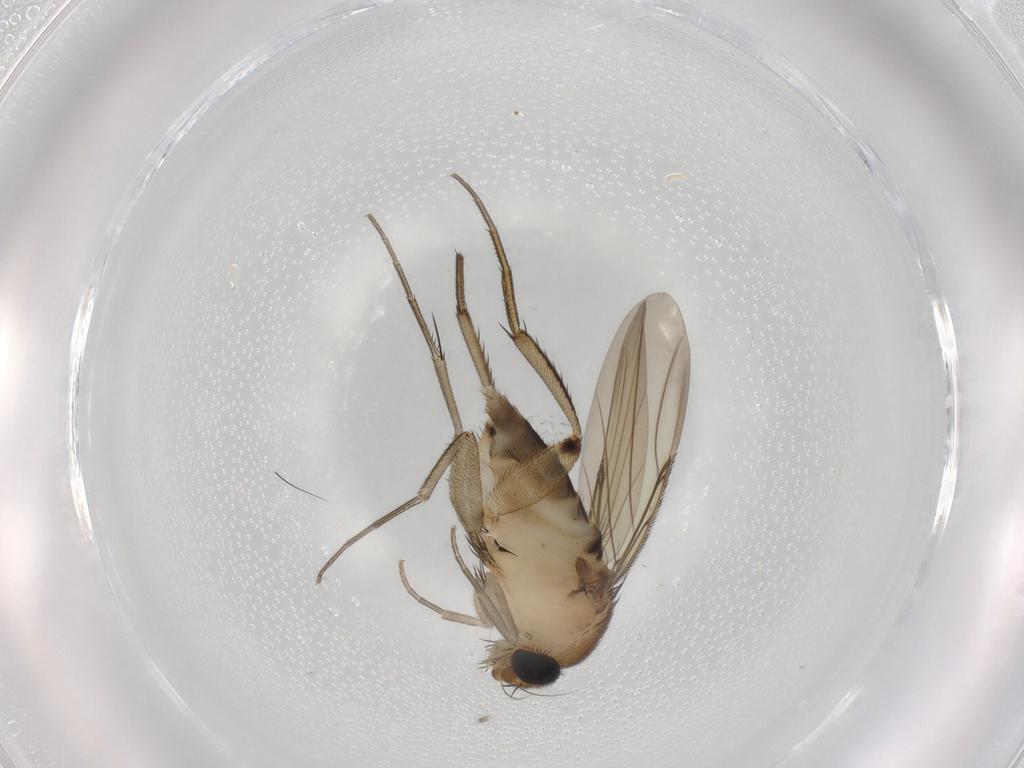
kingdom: Animalia
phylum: Arthropoda
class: Insecta
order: Diptera
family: Phoridae
